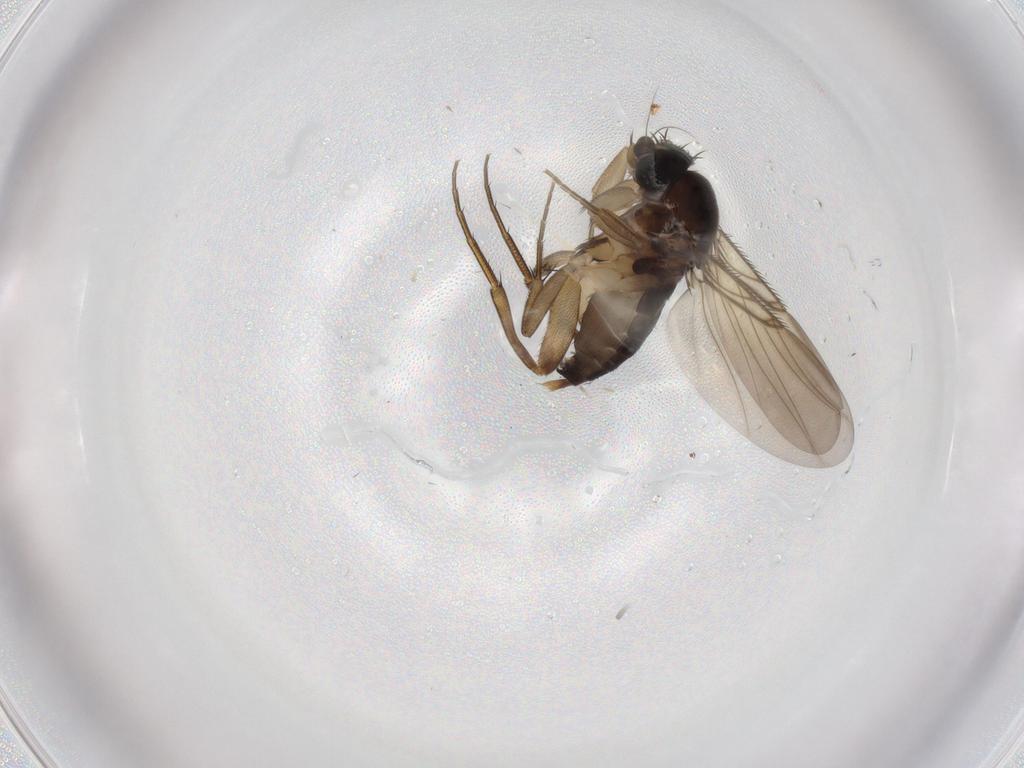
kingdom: Animalia
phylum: Arthropoda
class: Insecta
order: Diptera
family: Phoridae
